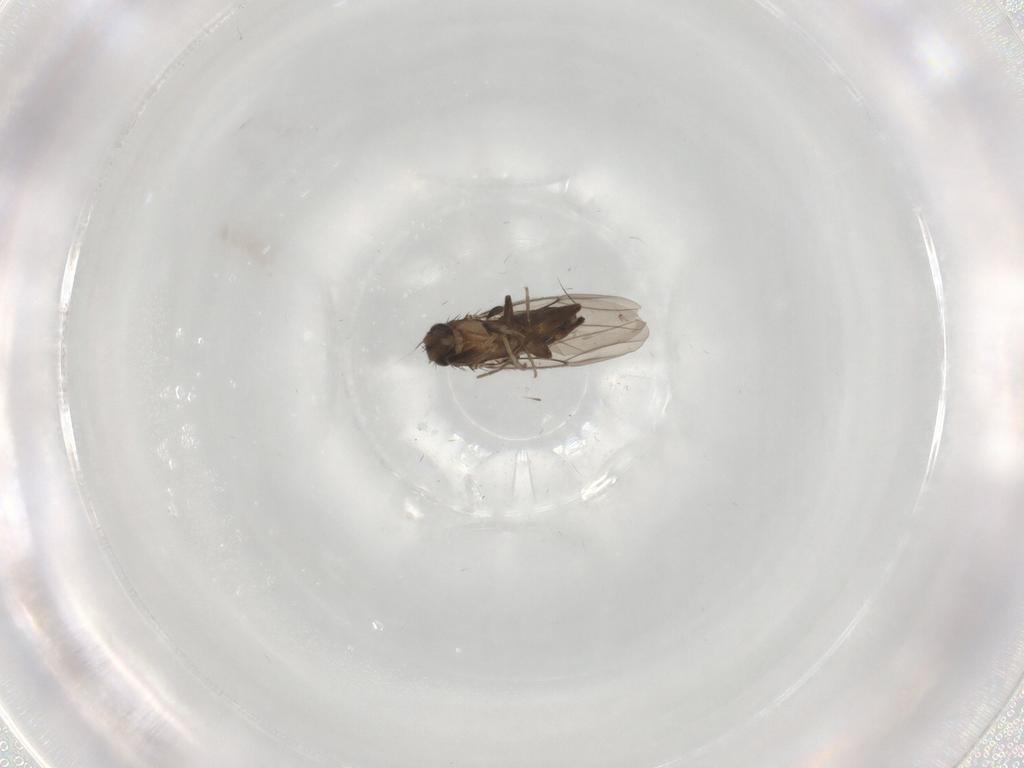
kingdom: Animalia
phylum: Arthropoda
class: Insecta
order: Diptera
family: Phoridae
